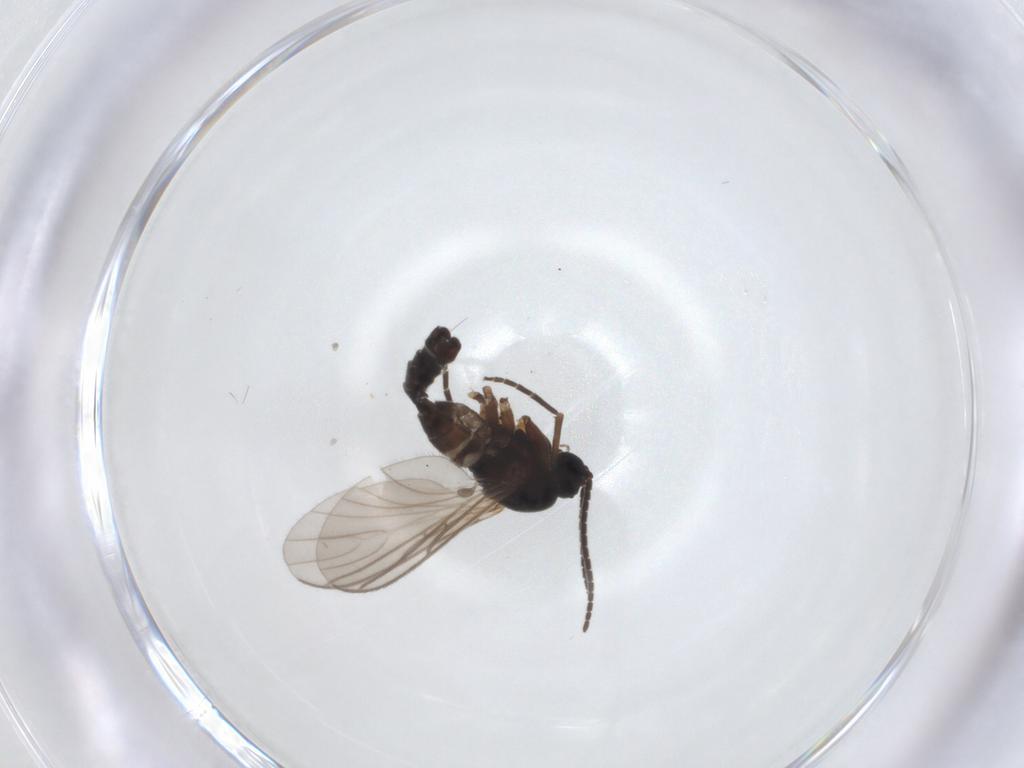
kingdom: Animalia
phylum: Arthropoda
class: Insecta
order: Diptera
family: Sciaridae
